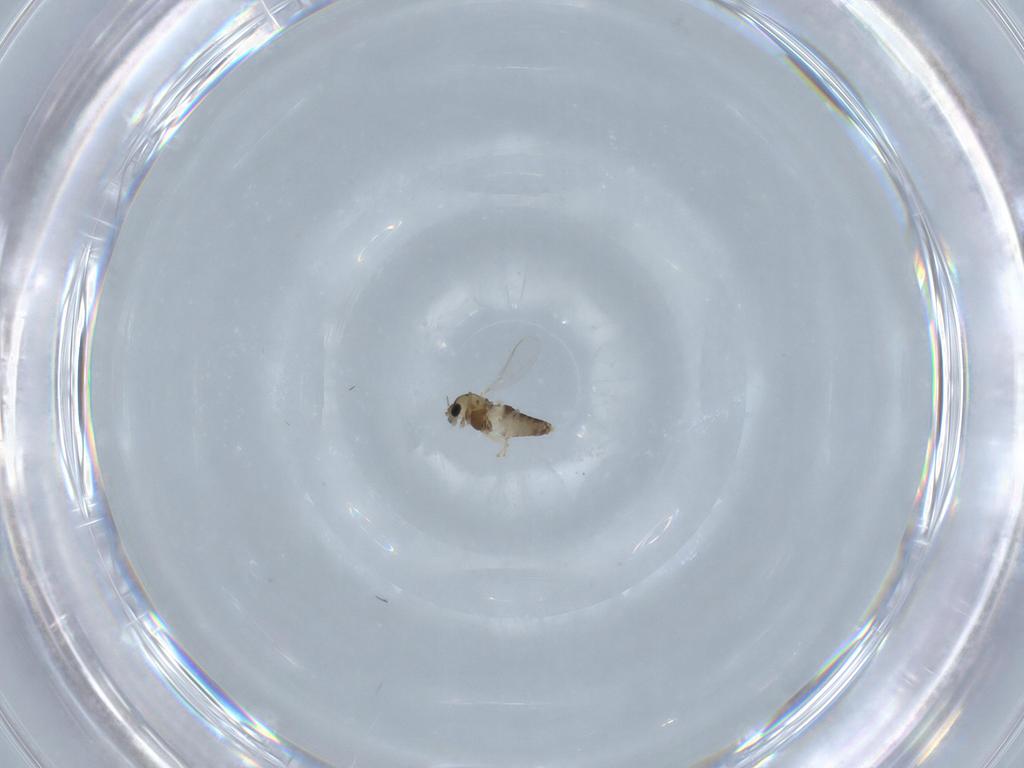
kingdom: Animalia
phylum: Arthropoda
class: Insecta
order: Diptera
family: Chironomidae
